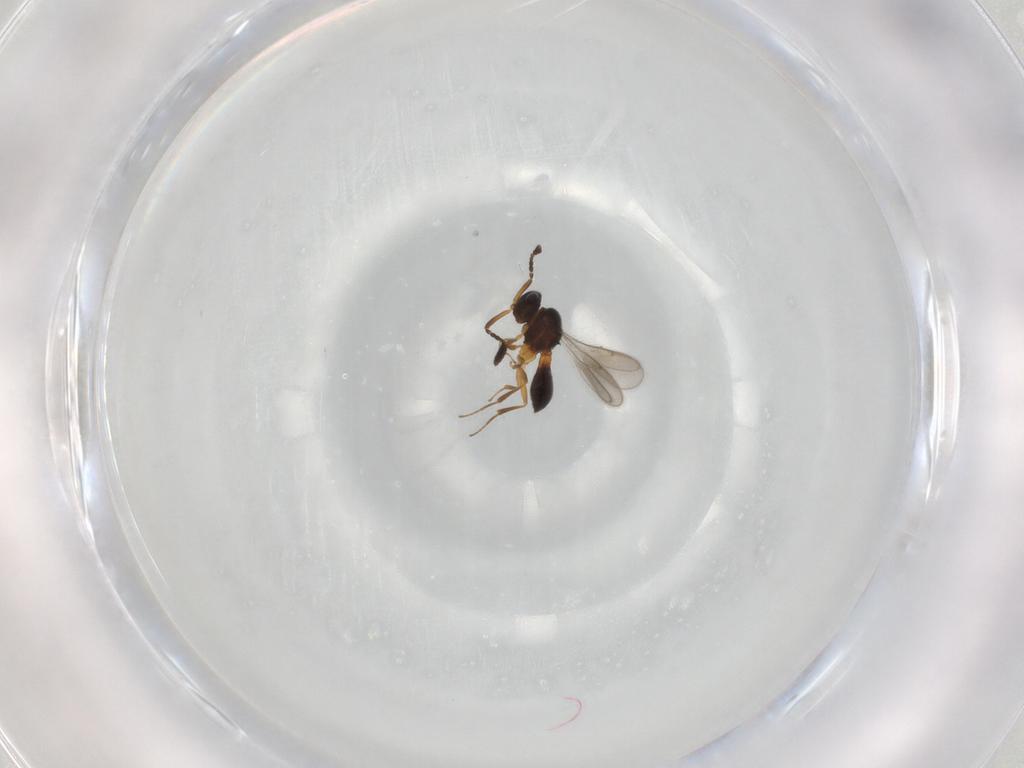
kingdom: Animalia
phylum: Arthropoda
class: Insecta
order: Hymenoptera
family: Scelionidae
